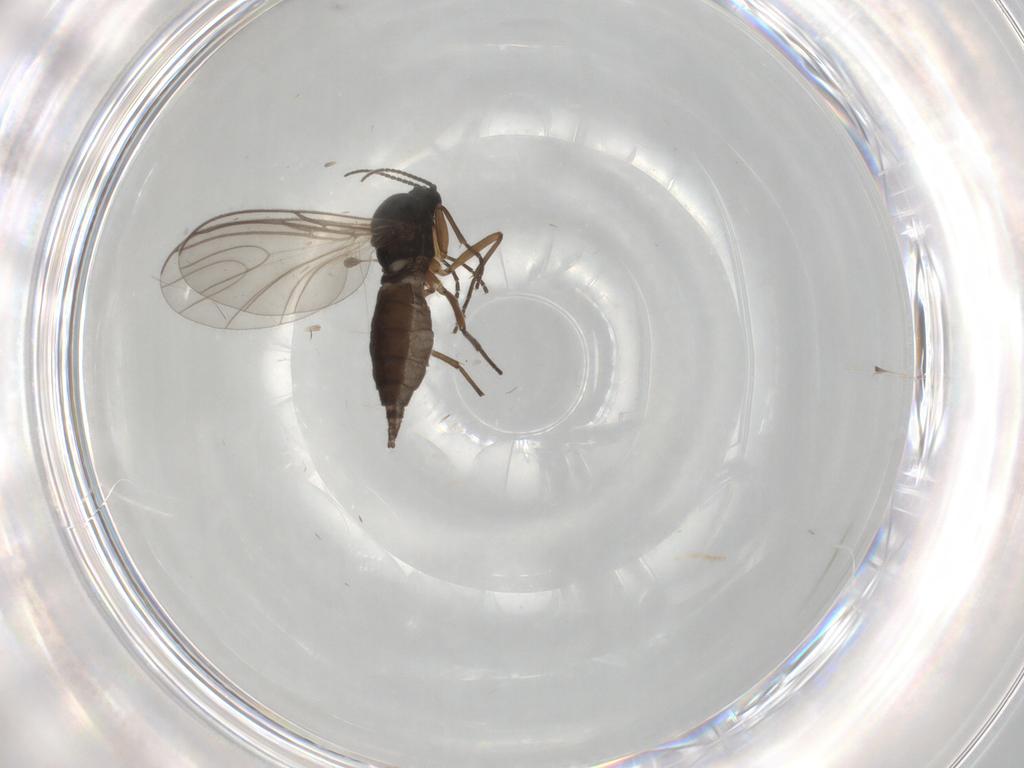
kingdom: Animalia
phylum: Arthropoda
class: Insecta
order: Diptera
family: Sciaridae
